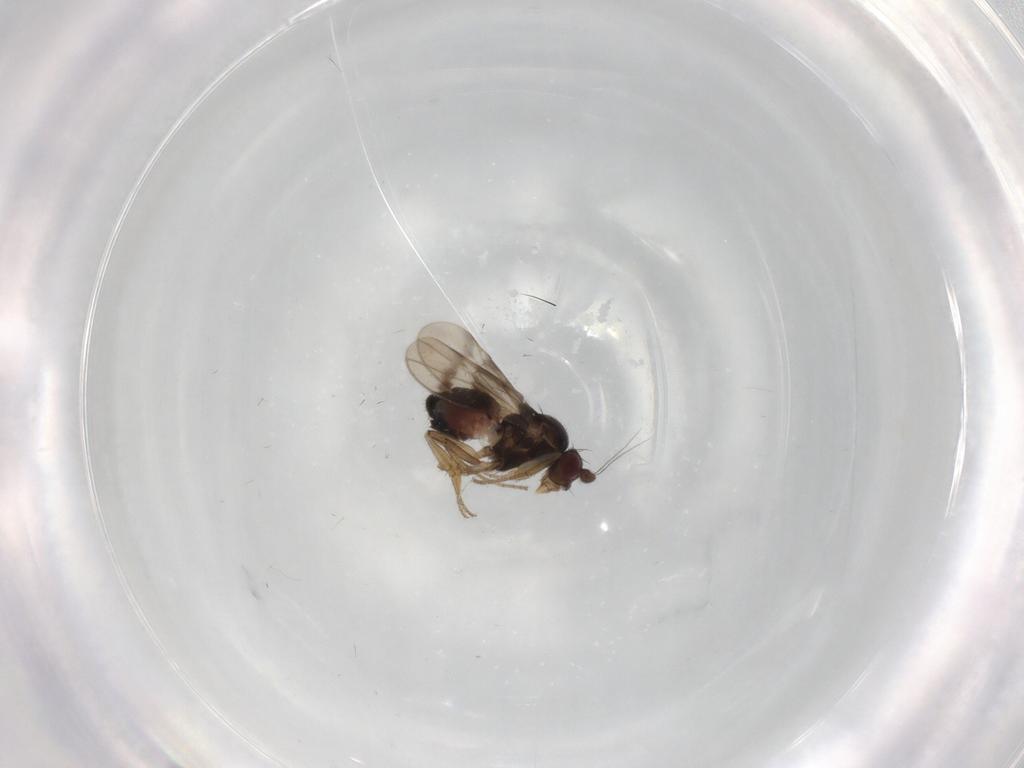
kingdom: Animalia
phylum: Arthropoda
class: Insecta
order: Diptera
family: Sphaeroceridae
